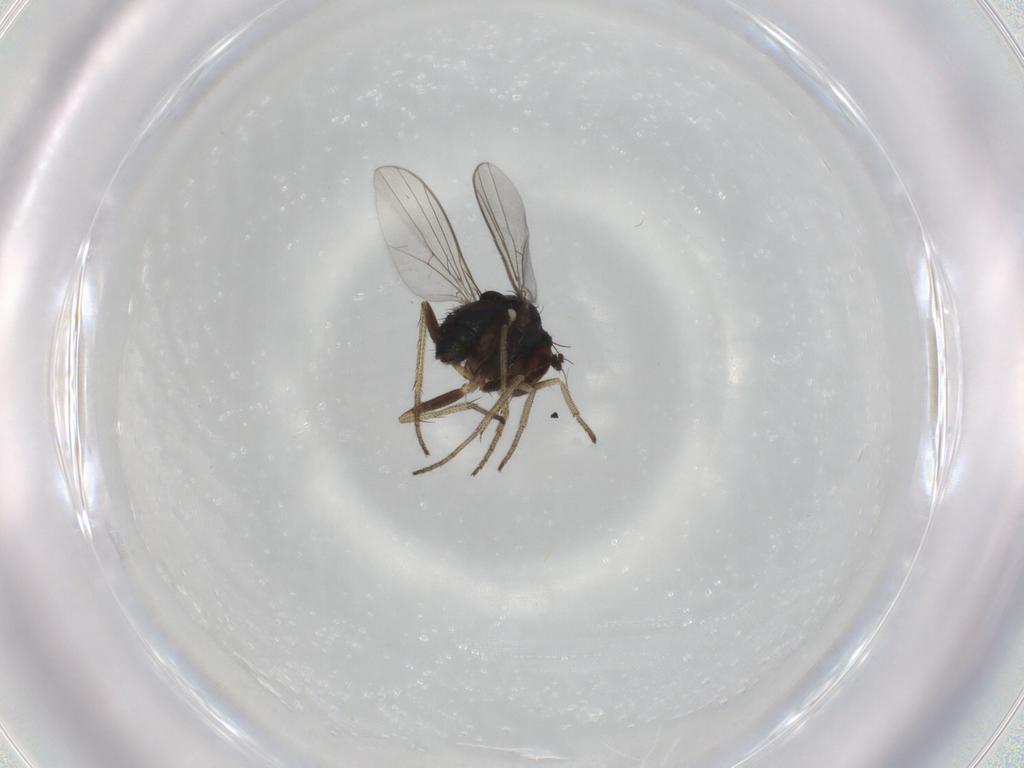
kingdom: Animalia
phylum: Arthropoda
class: Insecta
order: Diptera
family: Dolichopodidae
